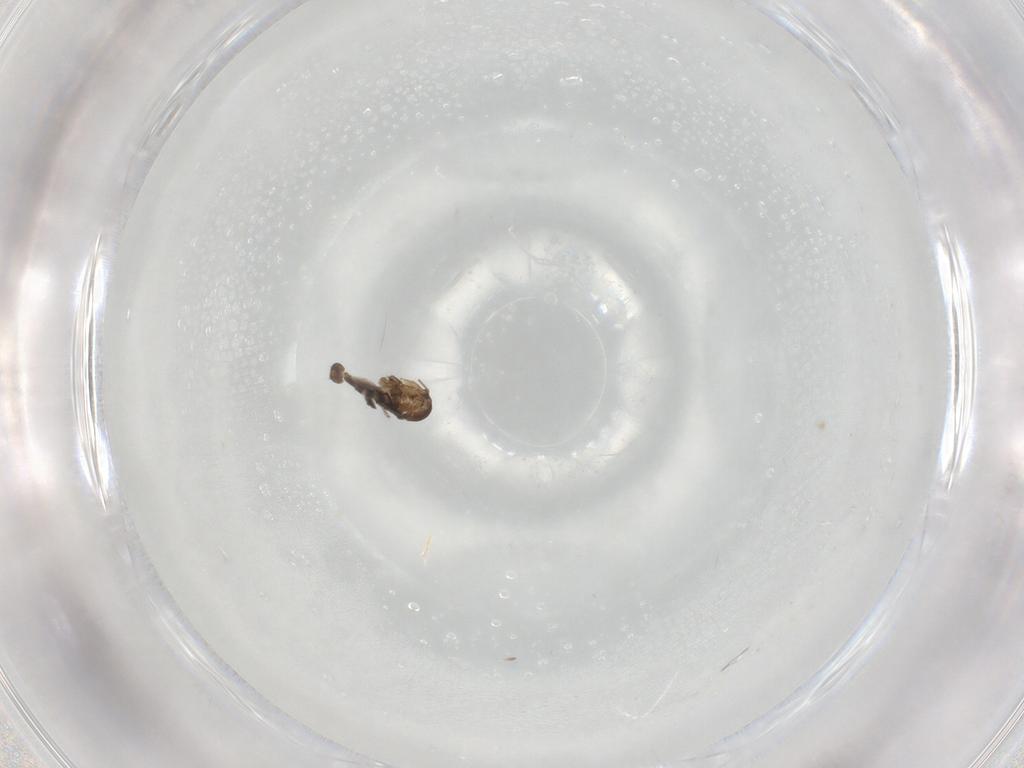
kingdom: Animalia
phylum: Arthropoda
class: Insecta
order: Diptera
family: Chironomidae
